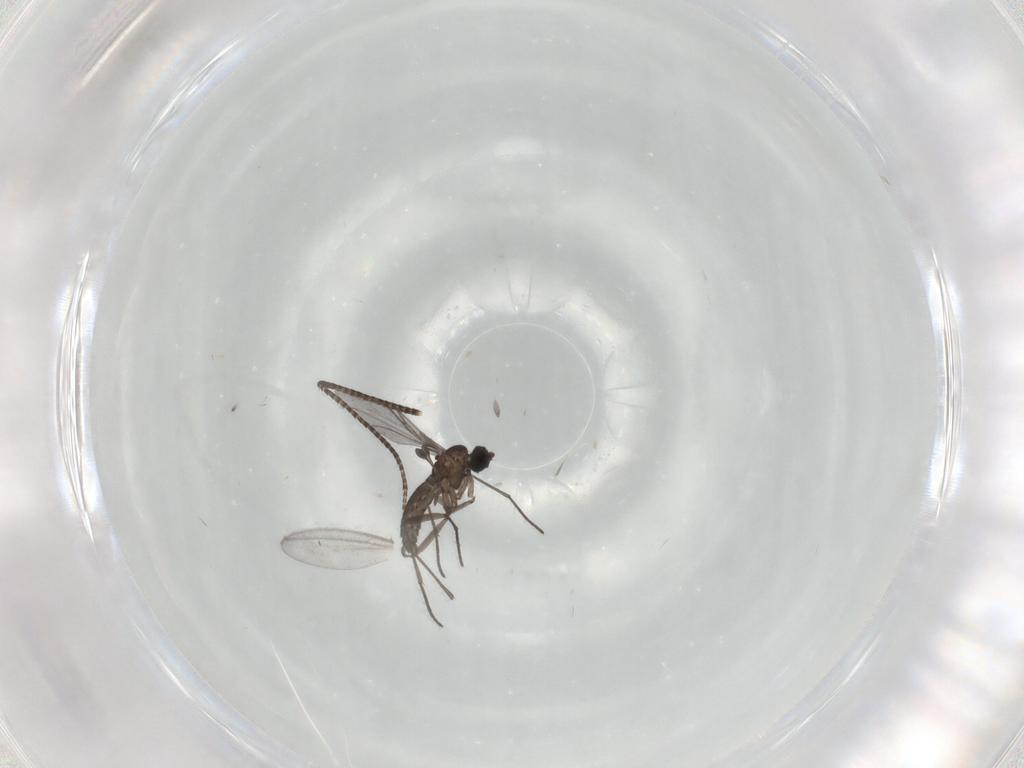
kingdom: Animalia
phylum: Arthropoda
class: Insecta
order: Diptera
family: Cecidomyiidae
